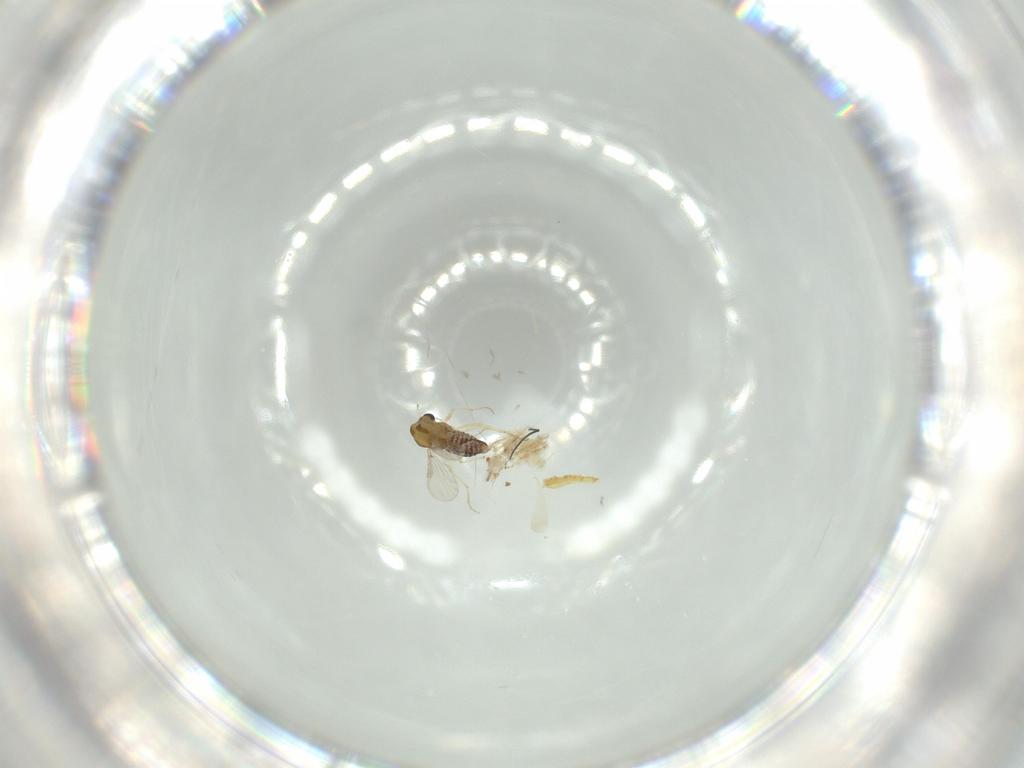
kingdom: Animalia
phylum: Arthropoda
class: Insecta
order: Diptera
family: Chironomidae
